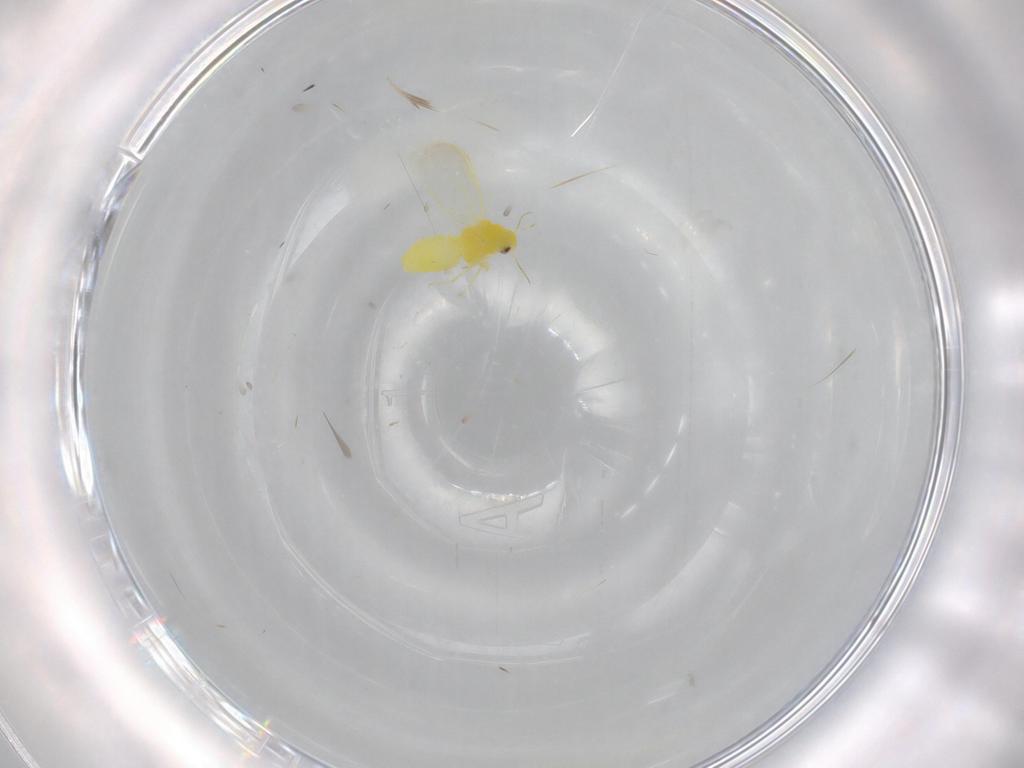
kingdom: Animalia
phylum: Arthropoda
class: Insecta
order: Hemiptera
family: Aleyrodidae
